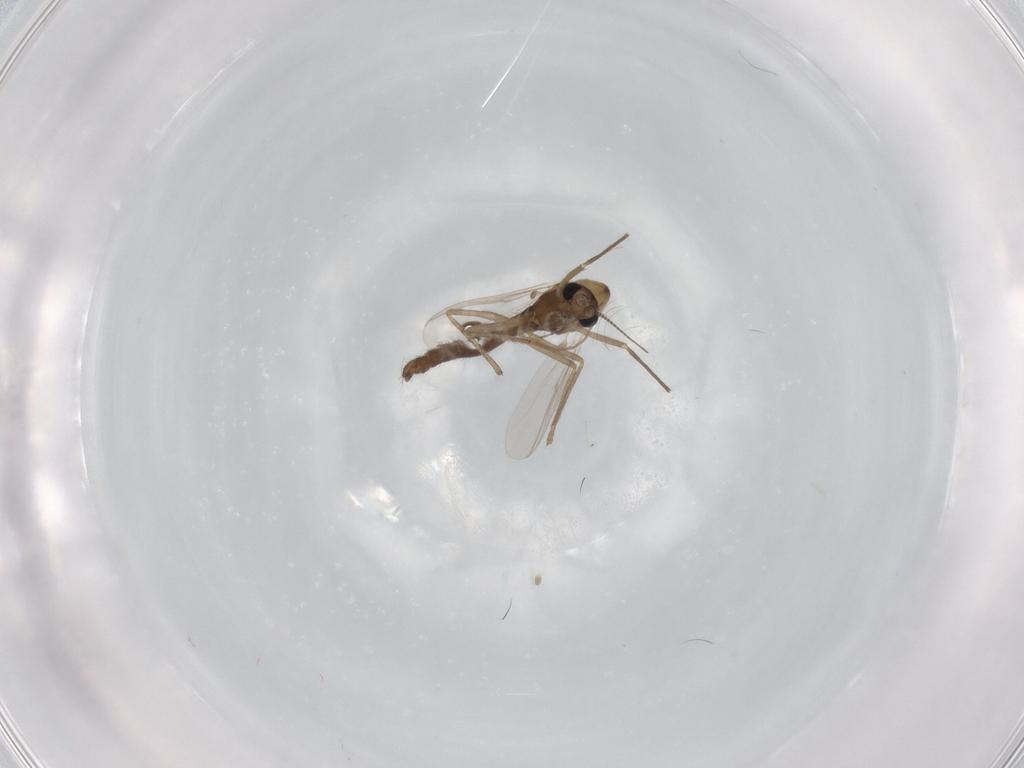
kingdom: Animalia
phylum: Arthropoda
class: Insecta
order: Diptera
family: Chironomidae
